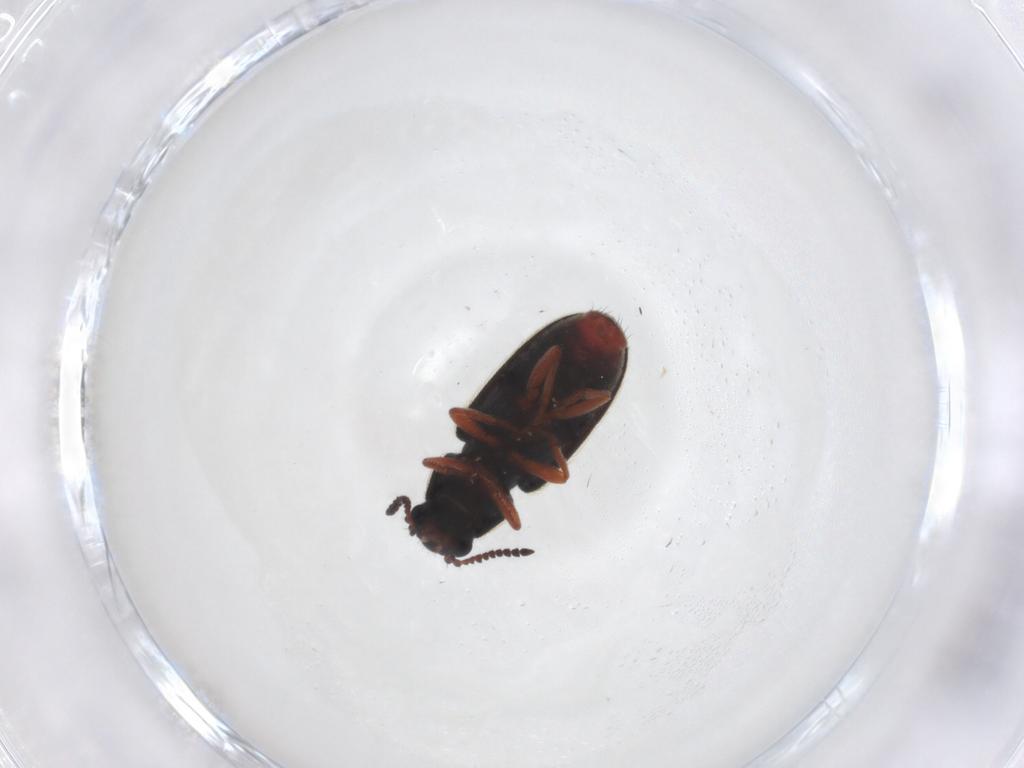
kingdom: Animalia
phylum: Arthropoda
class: Insecta
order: Coleoptera
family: Melyridae
